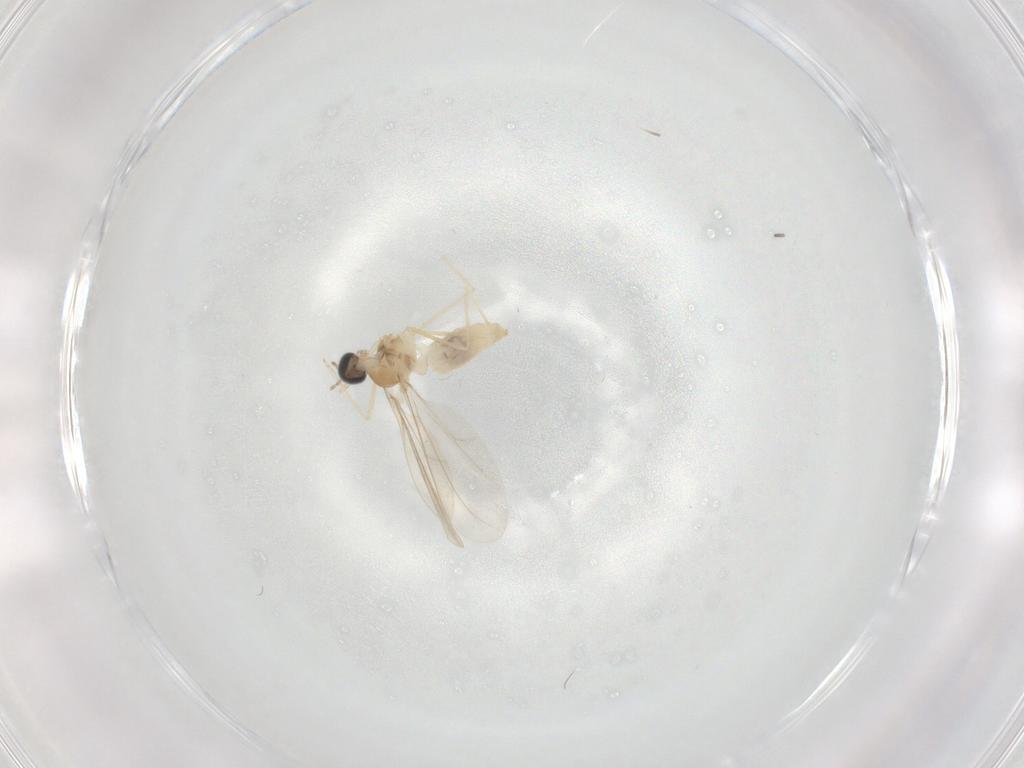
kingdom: Animalia
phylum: Arthropoda
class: Insecta
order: Diptera
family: Cecidomyiidae
